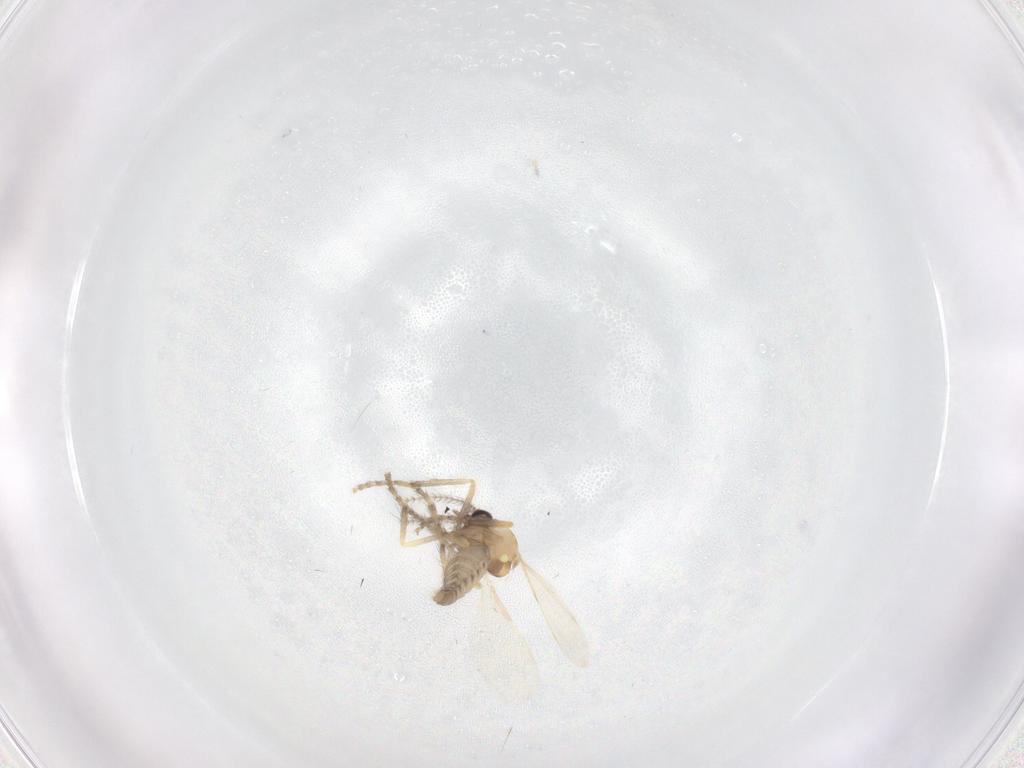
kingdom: Animalia
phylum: Arthropoda
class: Insecta
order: Diptera
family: Ceratopogonidae
